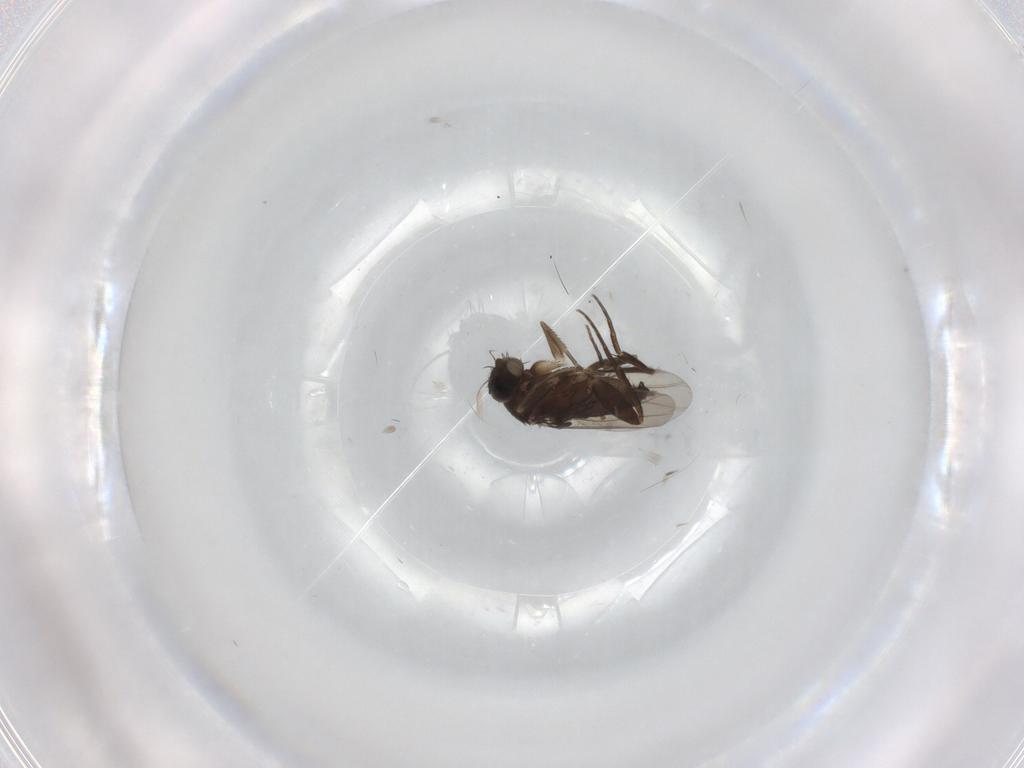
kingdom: Animalia
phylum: Arthropoda
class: Insecta
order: Diptera
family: Phoridae
